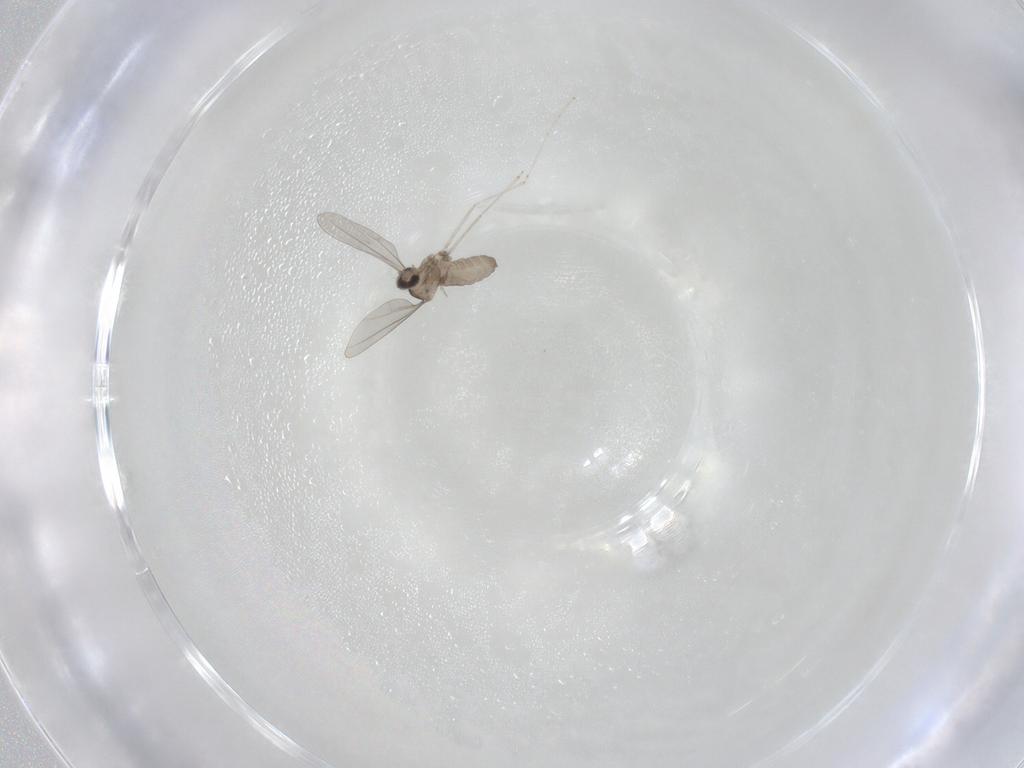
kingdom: Animalia
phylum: Arthropoda
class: Insecta
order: Diptera
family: Cecidomyiidae
